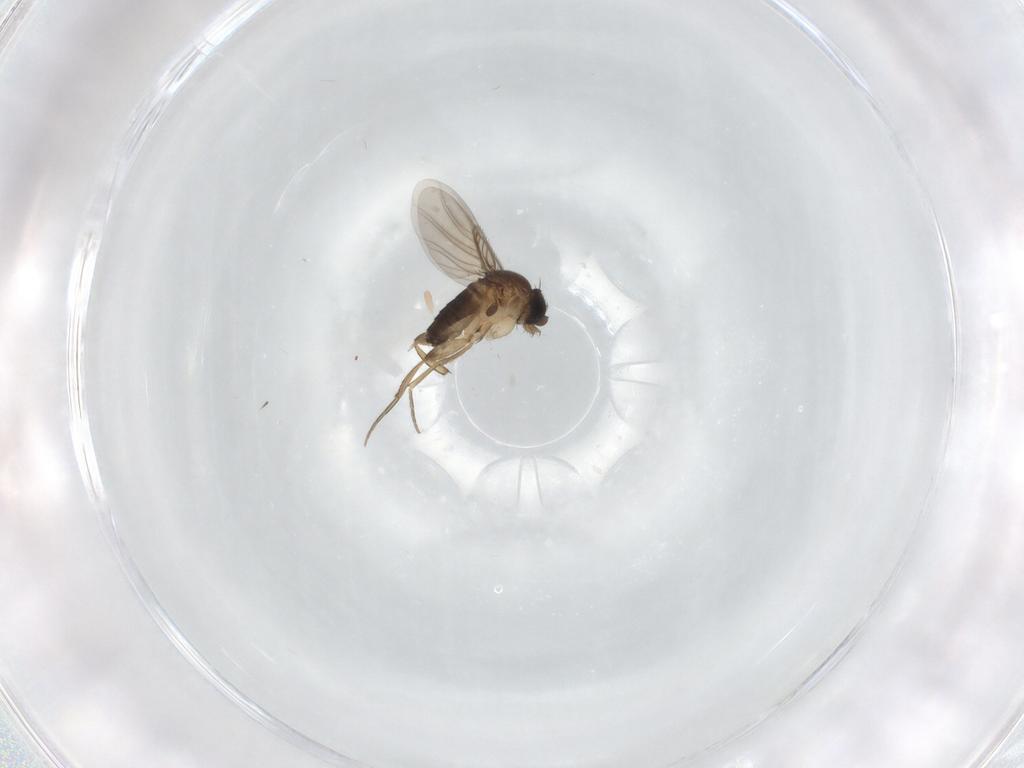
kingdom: Animalia
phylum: Arthropoda
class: Insecta
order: Diptera
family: Phoridae
